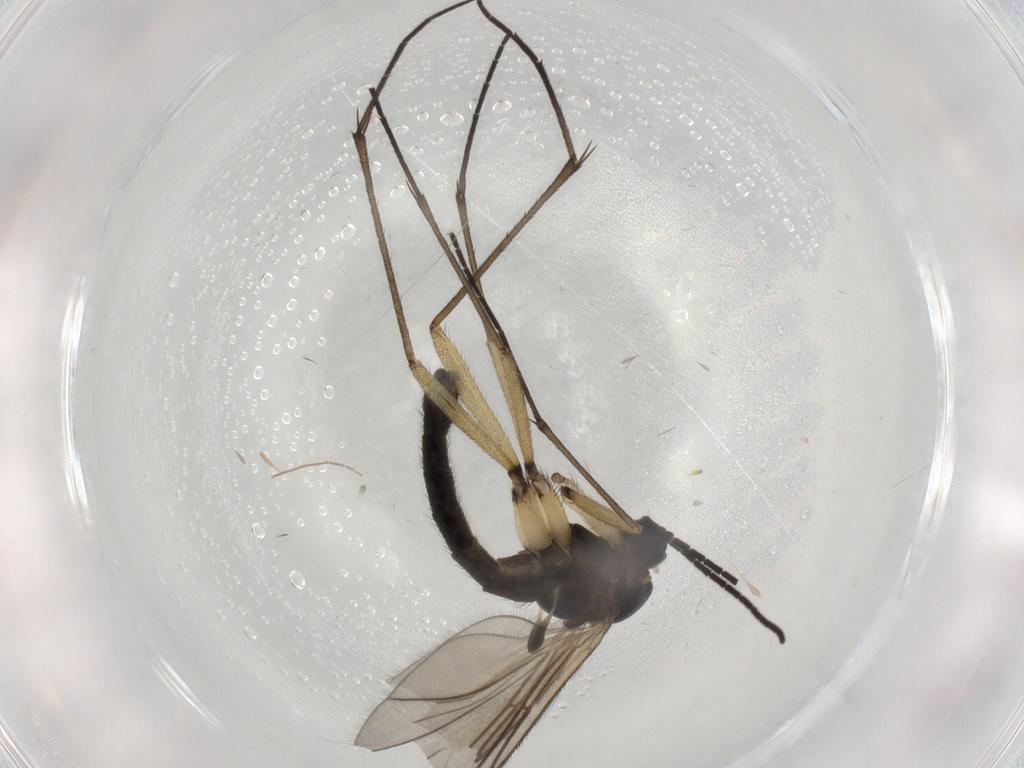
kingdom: Animalia
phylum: Arthropoda
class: Insecta
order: Diptera
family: Sciaridae
